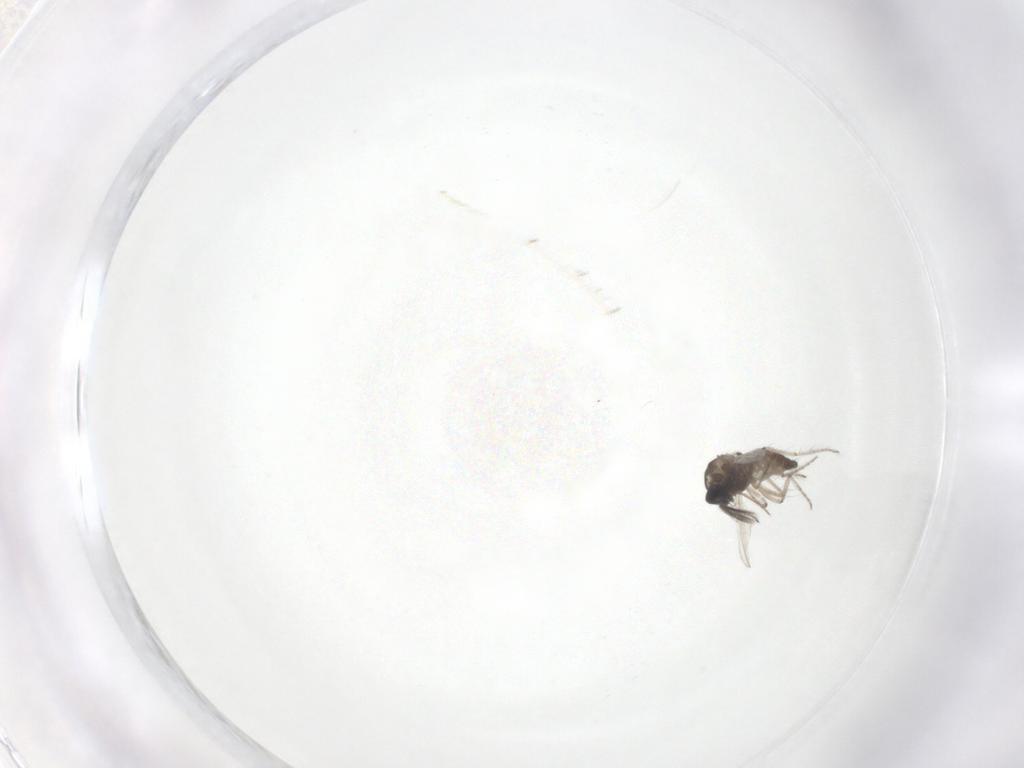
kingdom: Animalia
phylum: Arthropoda
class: Insecta
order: Diptera
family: Ceratopogonidae
